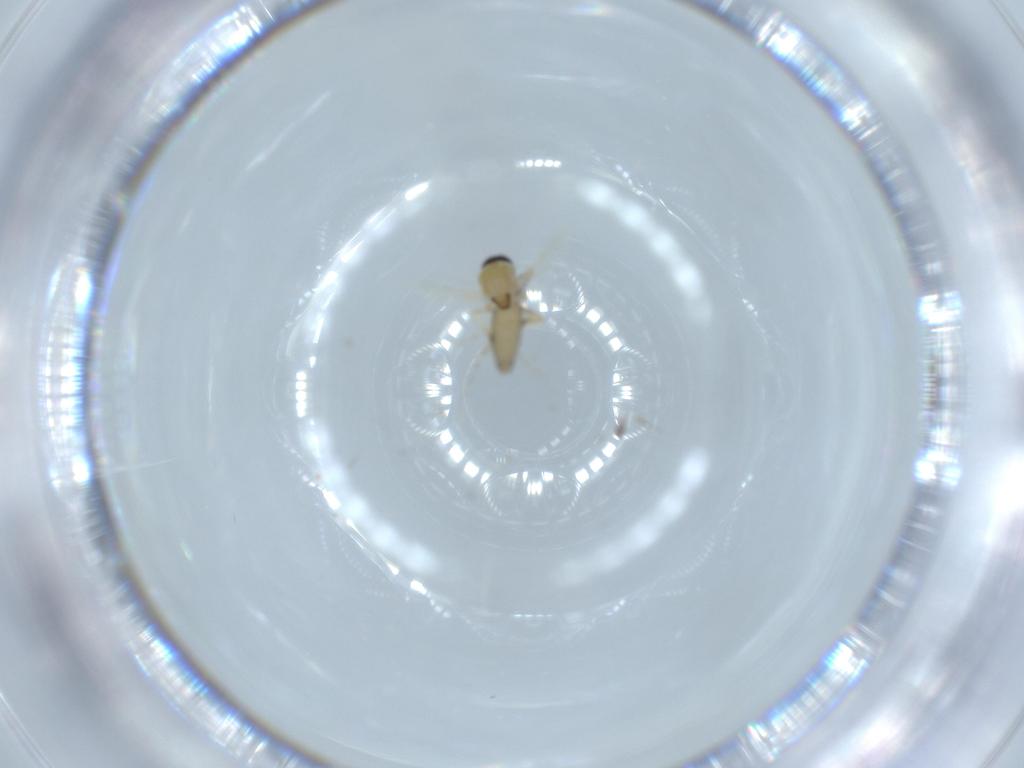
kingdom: Animalia
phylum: Arthropoda
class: Insecta
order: Diptera
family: Ceratopogonidae
